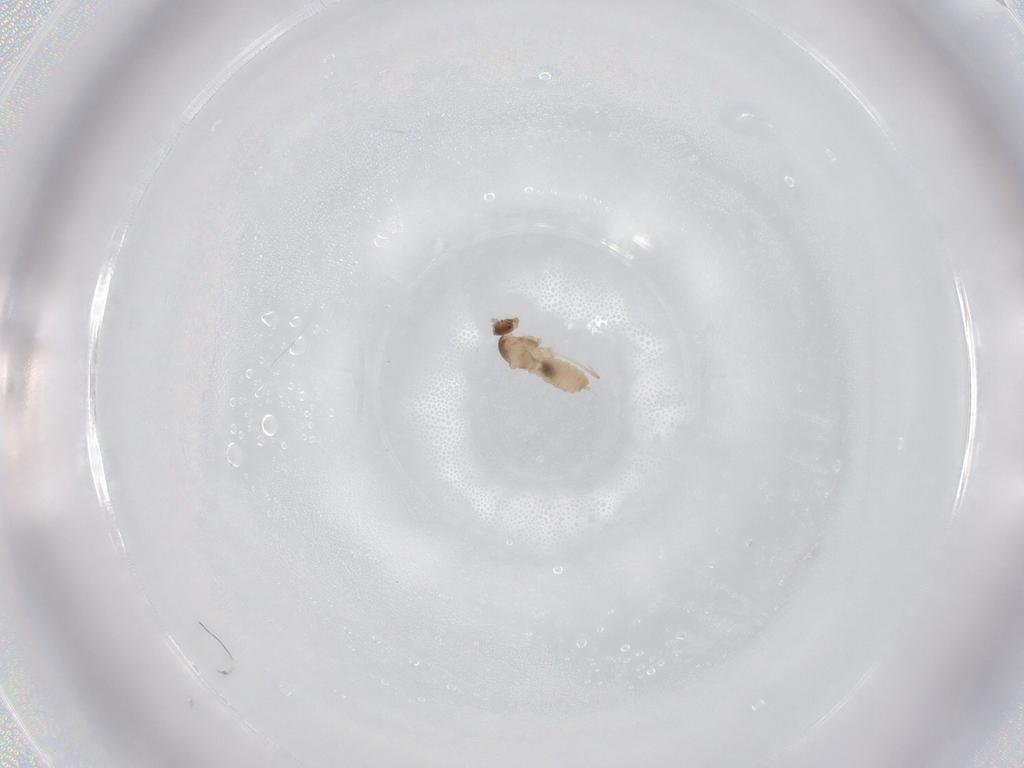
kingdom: Animalia
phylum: Arthropoda
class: Insecta
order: Diptera
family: Cecidomyiidae
